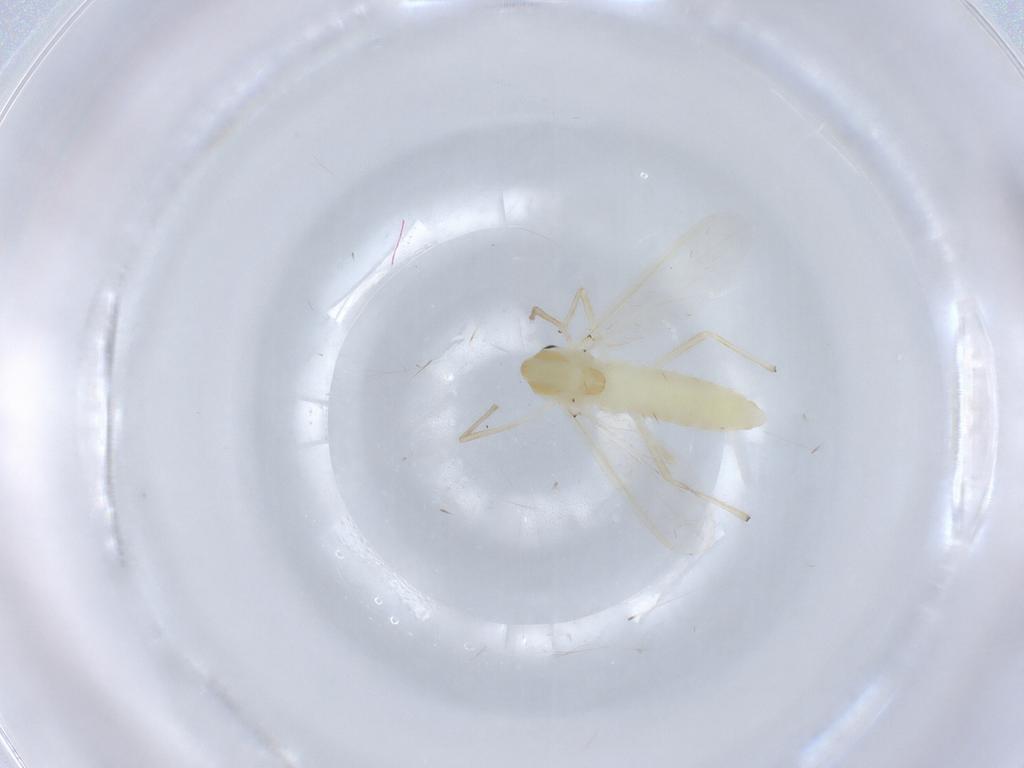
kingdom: Animalia
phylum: Arthropoda
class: Insecta
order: Diptera
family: Chironomidae
